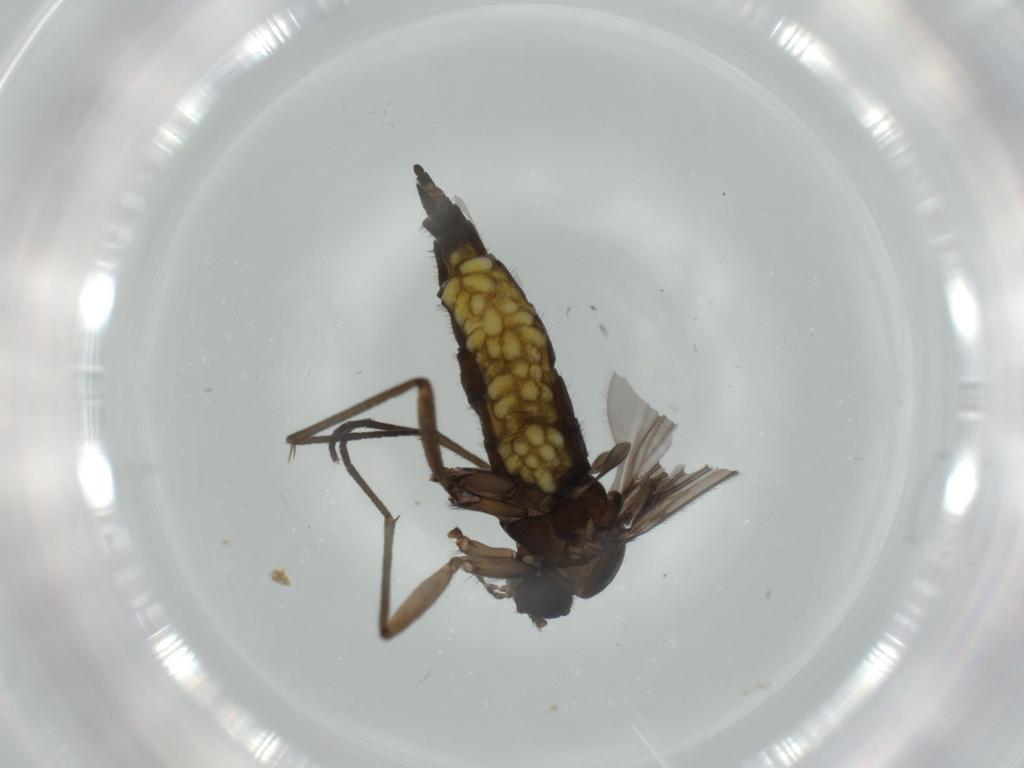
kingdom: Animalia
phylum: Arthropoda
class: Insecta
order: Diptera
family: Sciaridae
